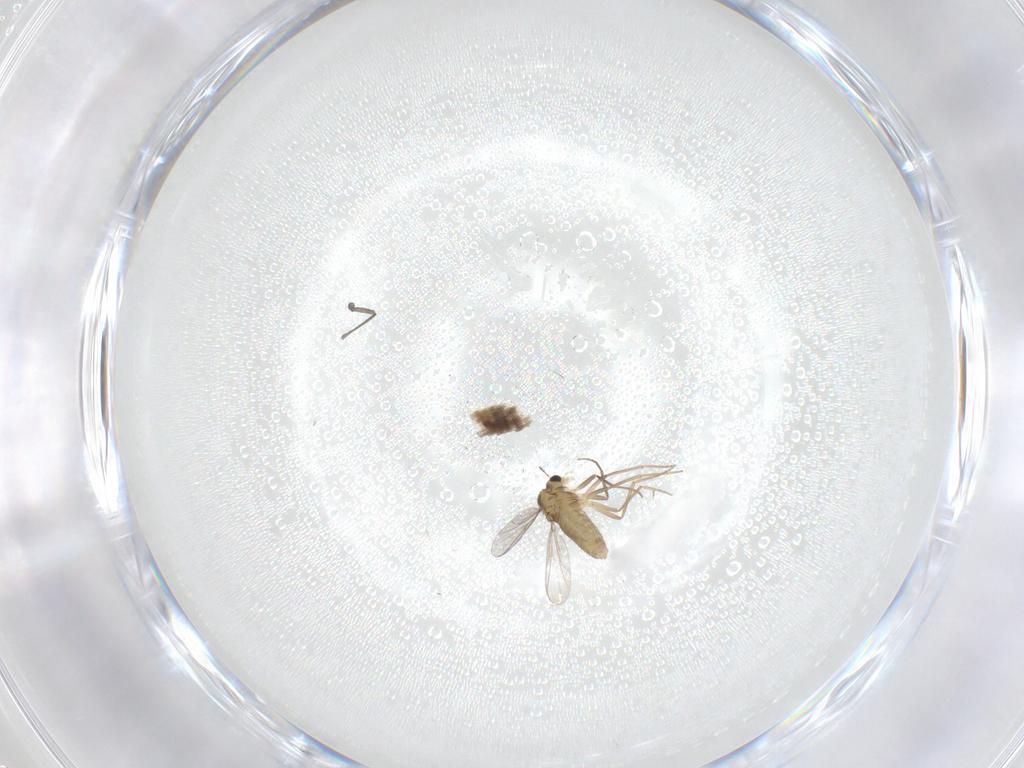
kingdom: Animalia
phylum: Arthropoda
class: Insecta
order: Diptera
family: Chironomidae
